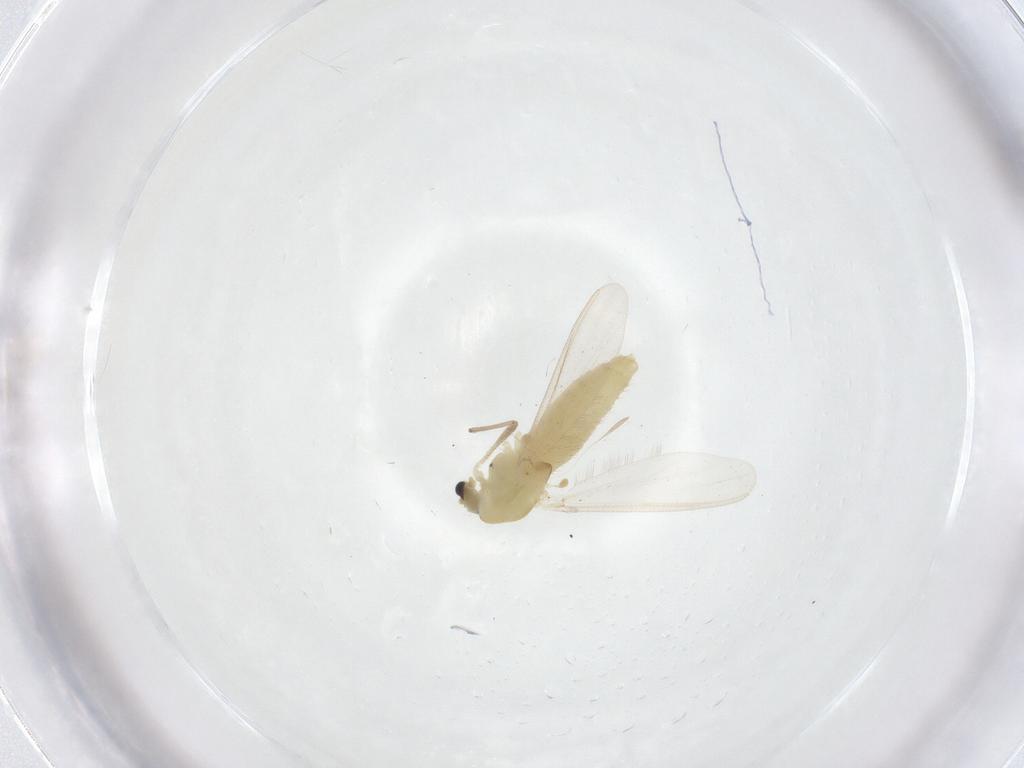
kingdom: Animalia
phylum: Arthropoda
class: Insecta
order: Diptera
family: Chironomidae
